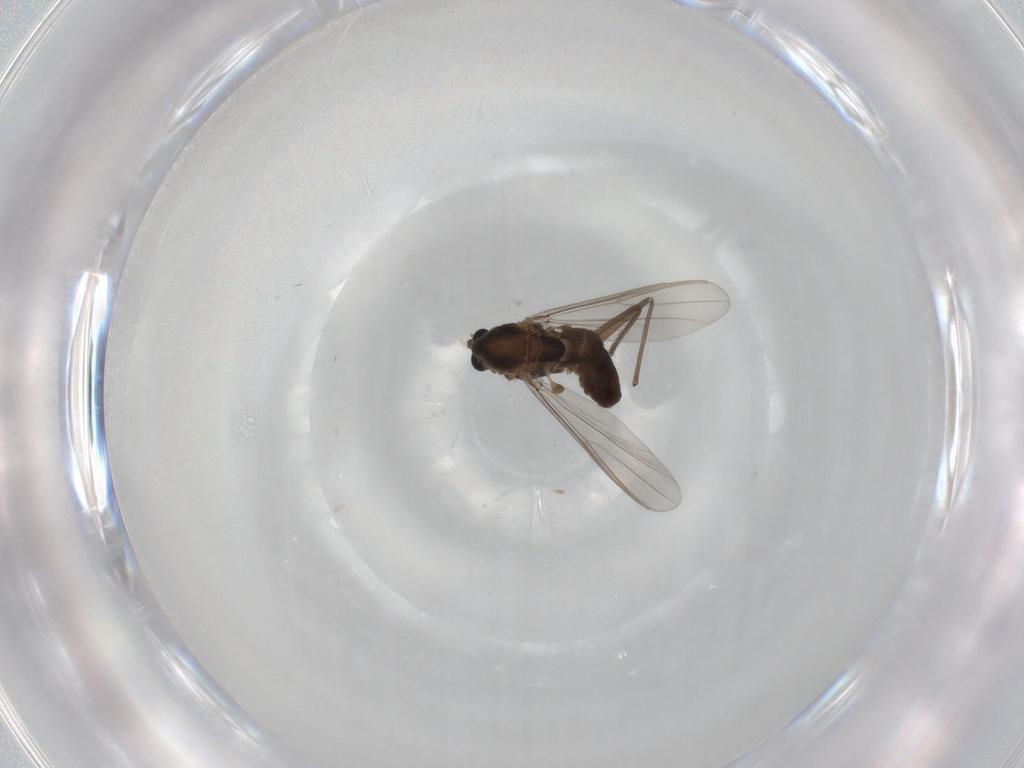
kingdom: Animalia
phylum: Arthropoda
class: Insecta
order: Diptera
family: Chironomidae
